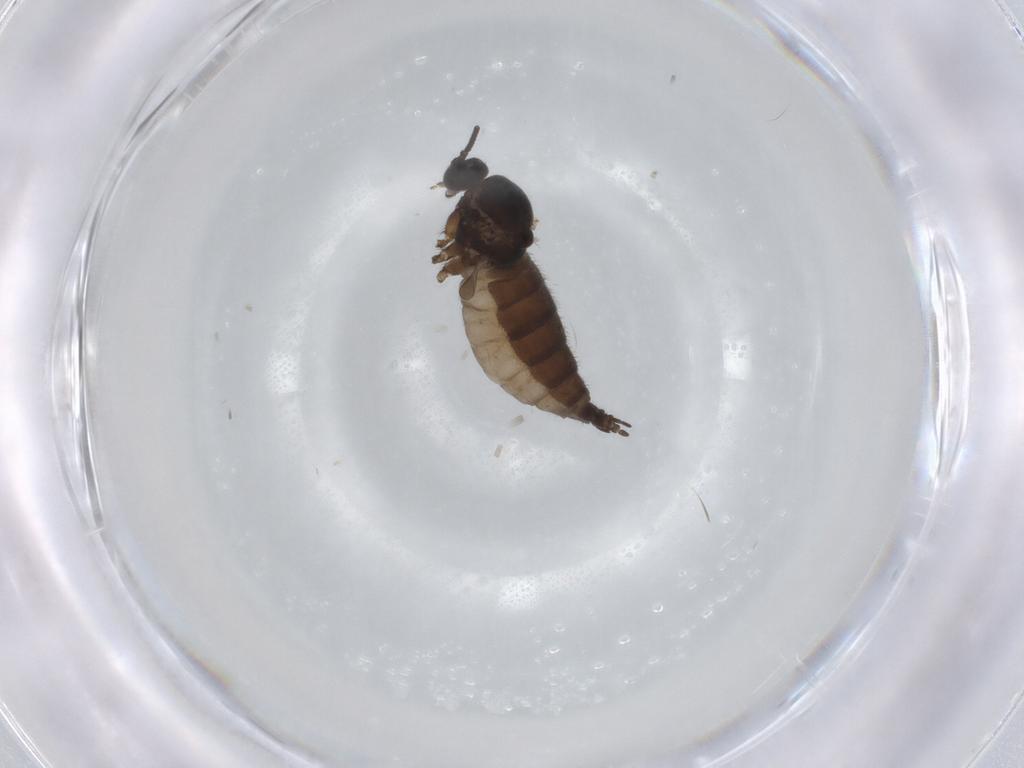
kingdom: Animalia
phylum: Arthropoda
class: Insecta
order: Diptera
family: Sciaridae
